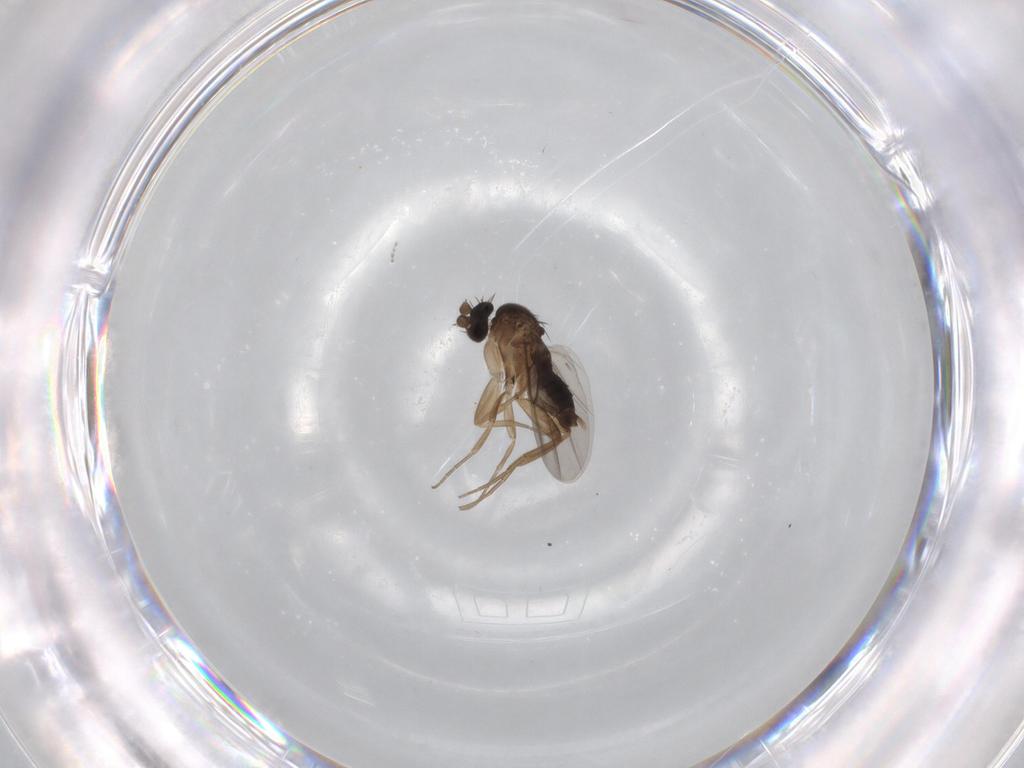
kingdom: Animalia
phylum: Arthropoda
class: Insecta
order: Diptera
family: Phoridae
